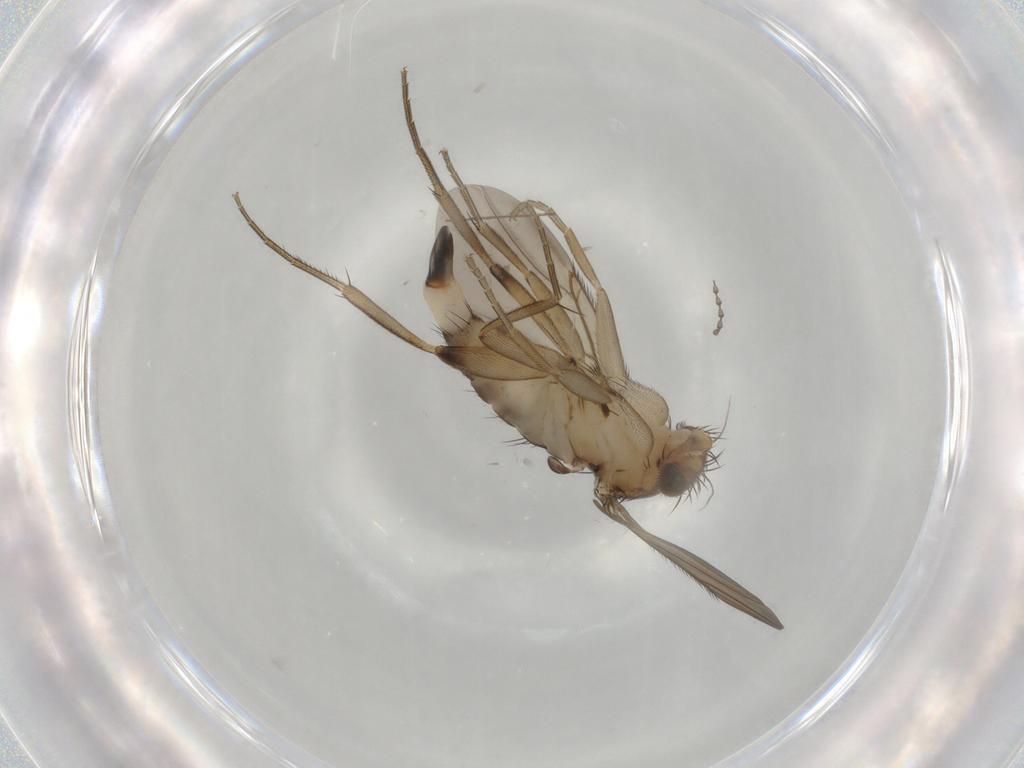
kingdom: Animalia
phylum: Arthropoda
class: Insecta
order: Diptera
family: Phoridae
